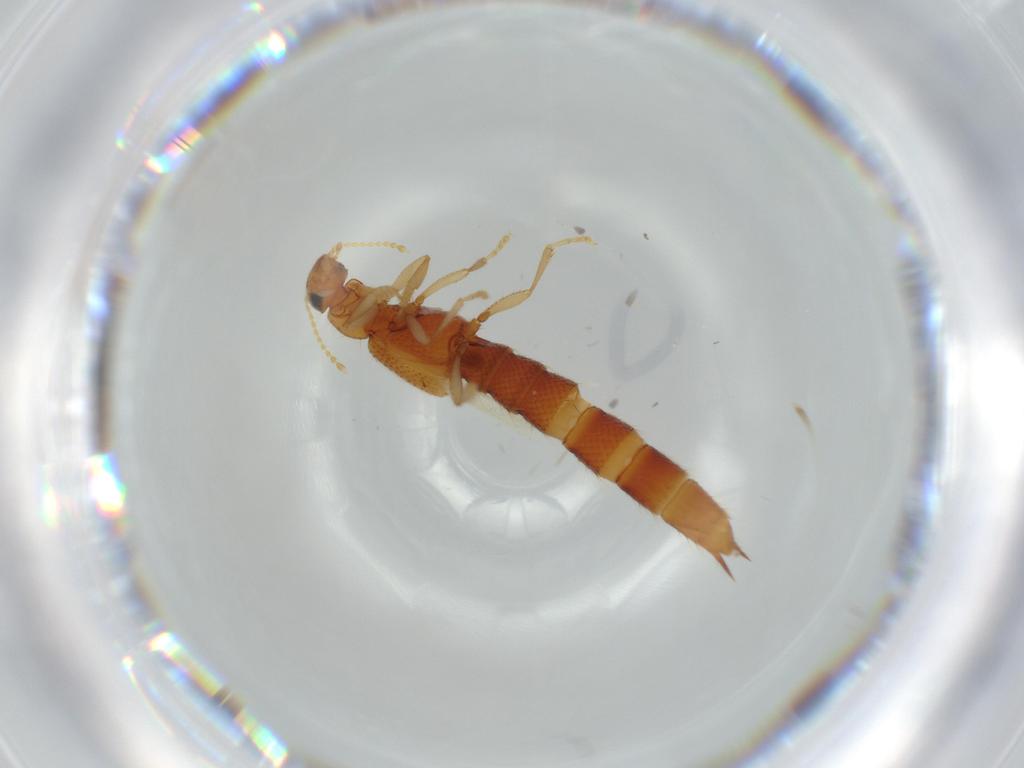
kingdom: Animalia
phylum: Arthropoda
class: Insecta
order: Coleoptera
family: Staphylinidae
